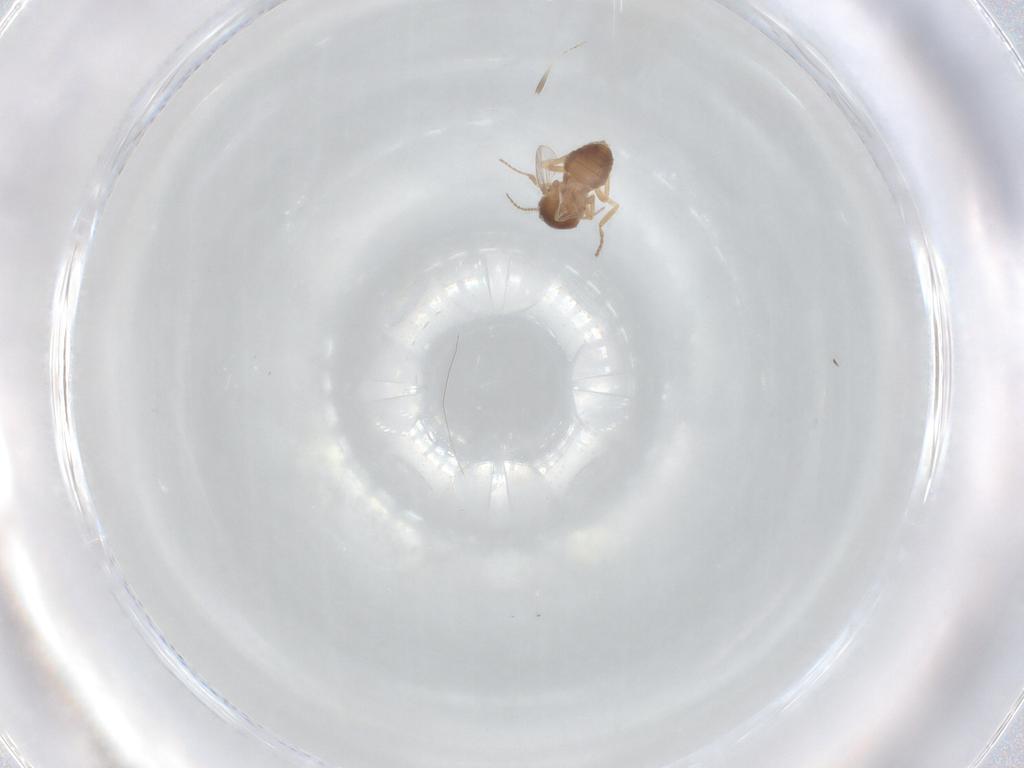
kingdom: Animalia
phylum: Arthropoda
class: Insecta
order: Diptera
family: Ceratopogonidae
